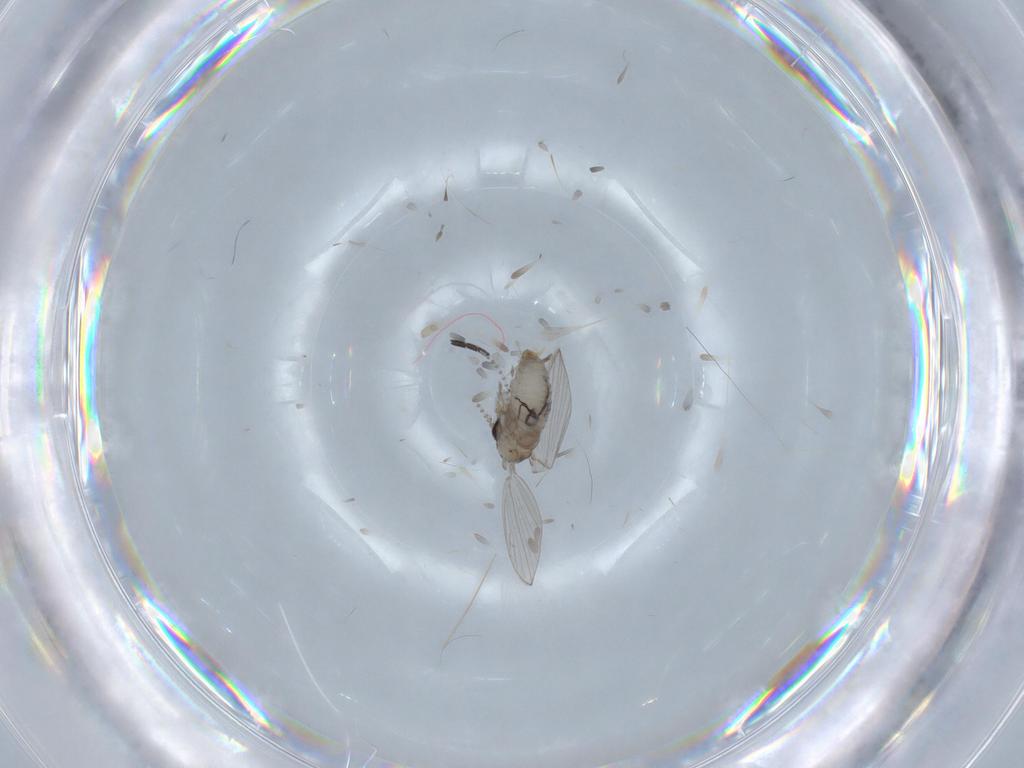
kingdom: Animalia
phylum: Arthropoda
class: Insecta
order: Diptera
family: Psychodidae
